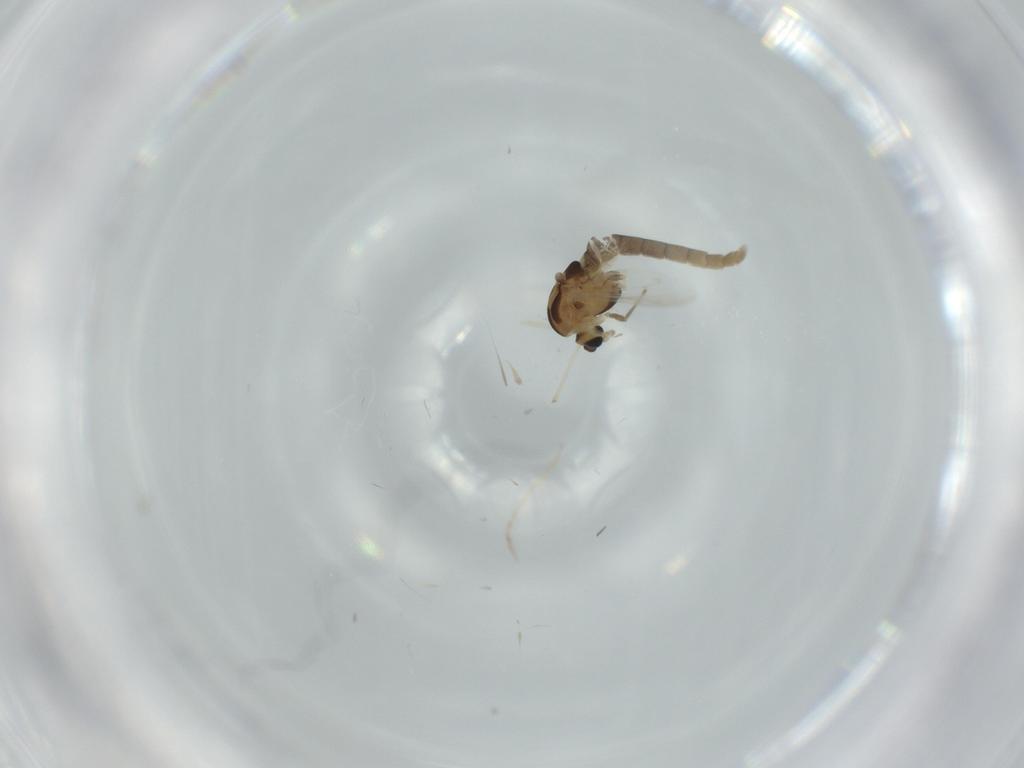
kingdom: Animalia
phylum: Arthropoda
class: Insecta
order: Diptera
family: Chironomidae
